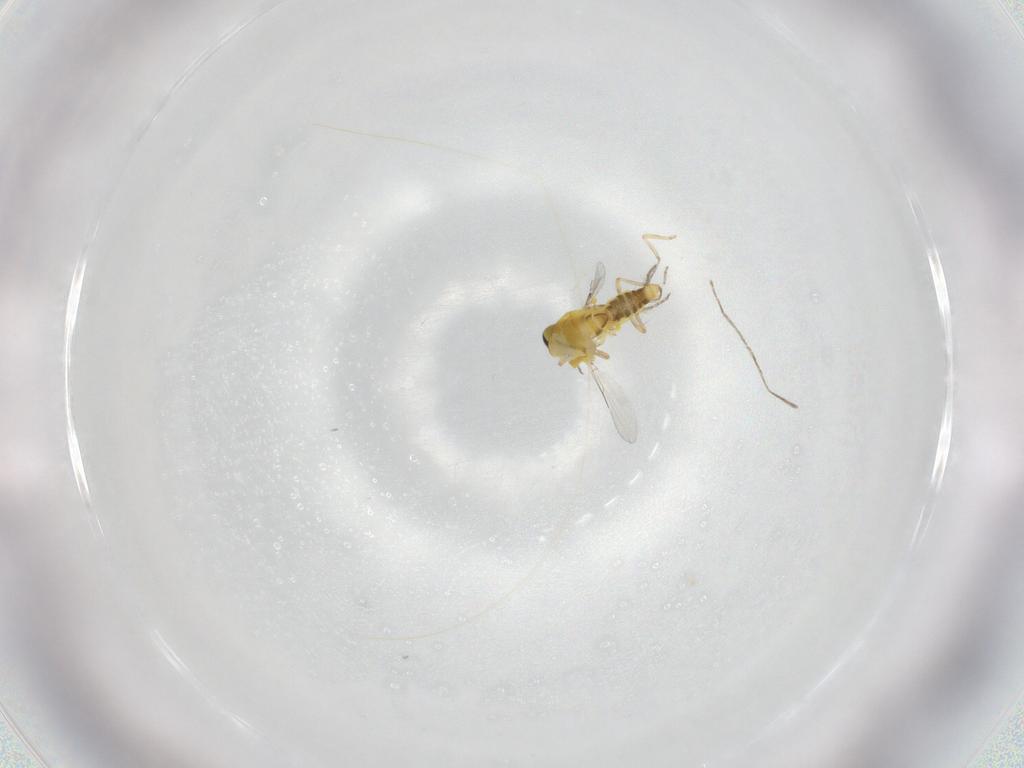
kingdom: Animalia
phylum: Arthropoda
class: Insecta
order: Diptera
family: Ceratopogonidae
